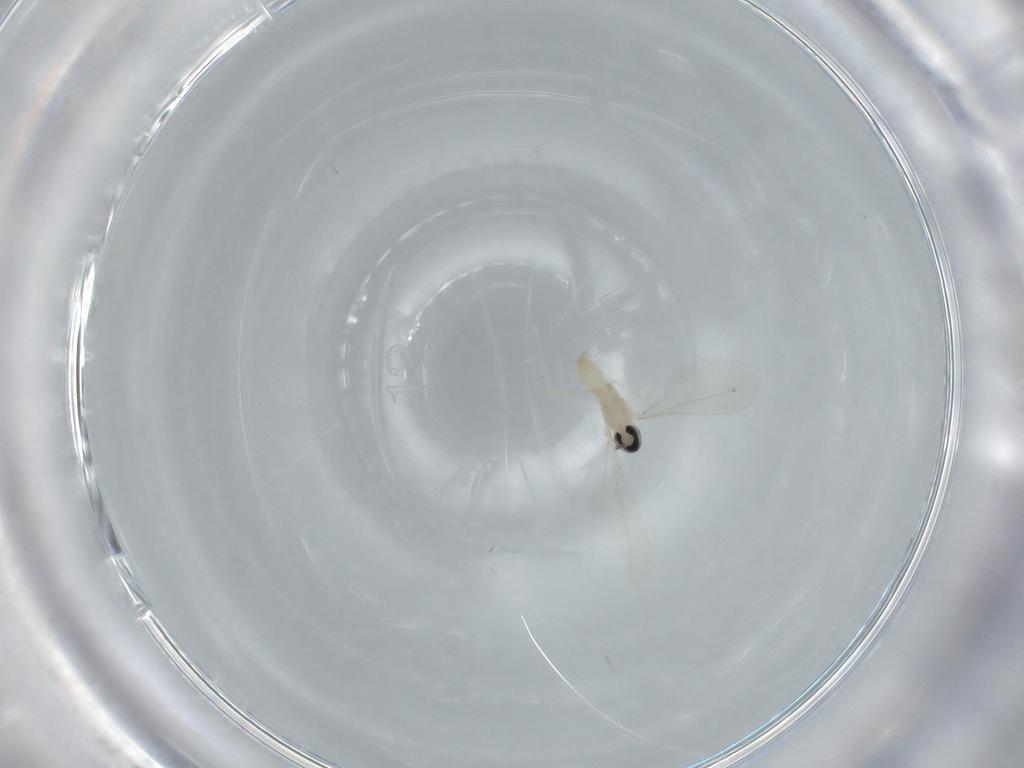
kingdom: Animalia
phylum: Arthropoda
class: Insecta
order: Diptera
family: Cecidomyiidae
